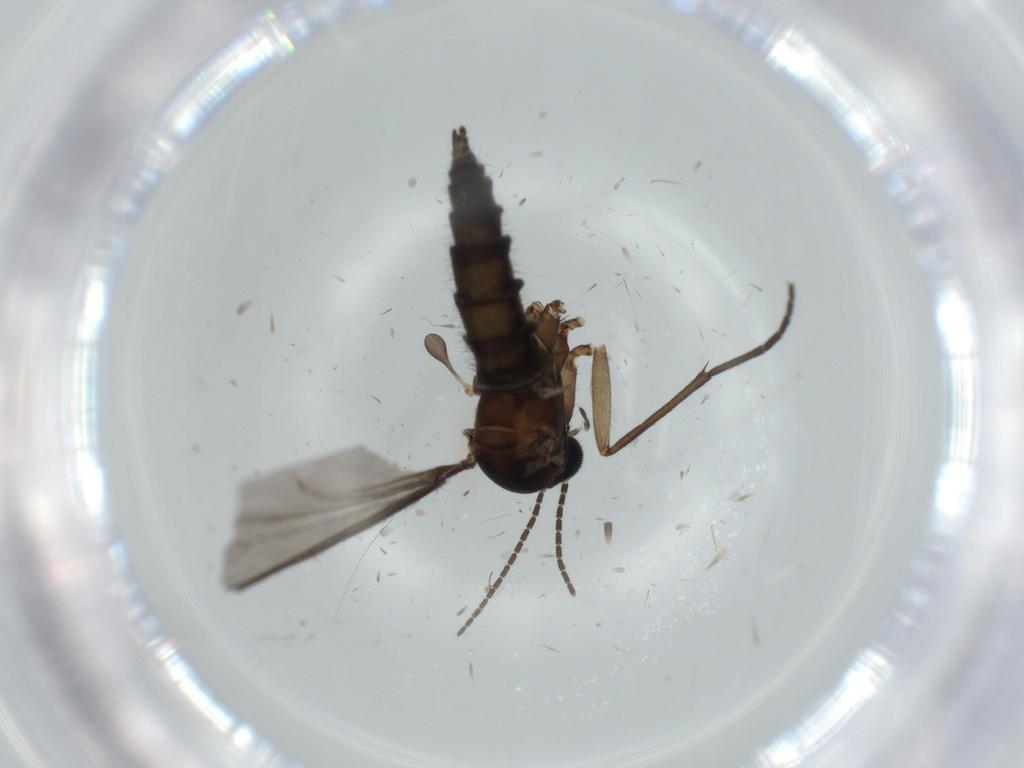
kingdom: Animalia
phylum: Arthropoda
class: Insecta
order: Diptera
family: Sciaridae
